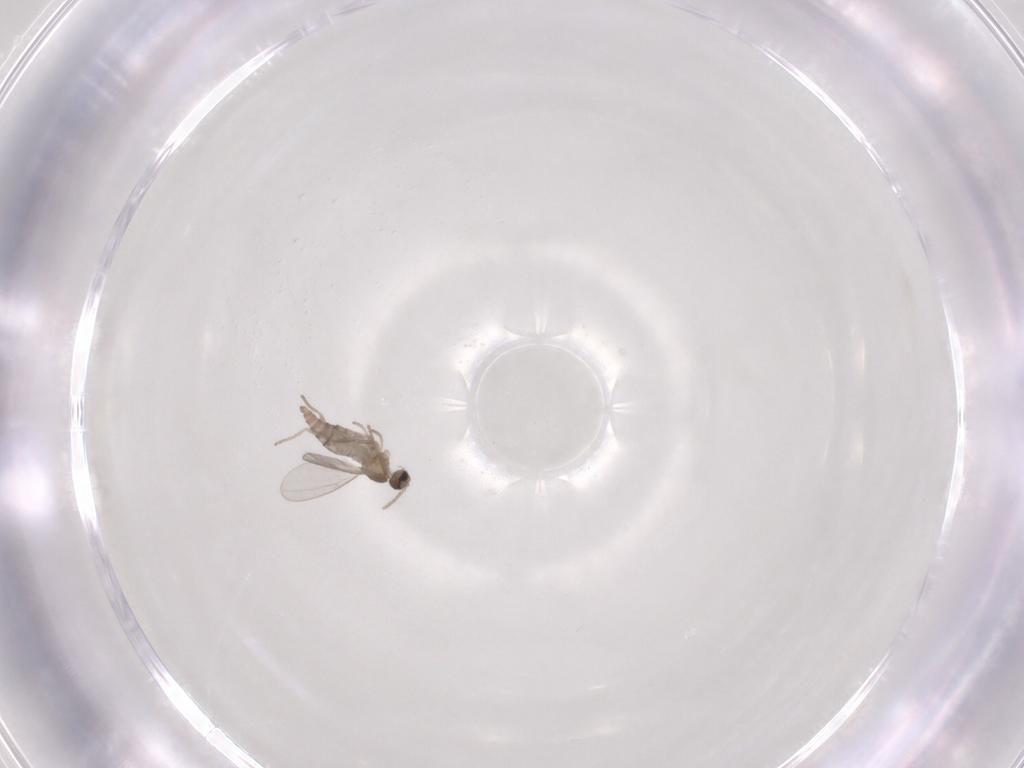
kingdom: Animalia
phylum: Arthropoda
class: Insecta
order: Diptera
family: Cecidomyiidae
